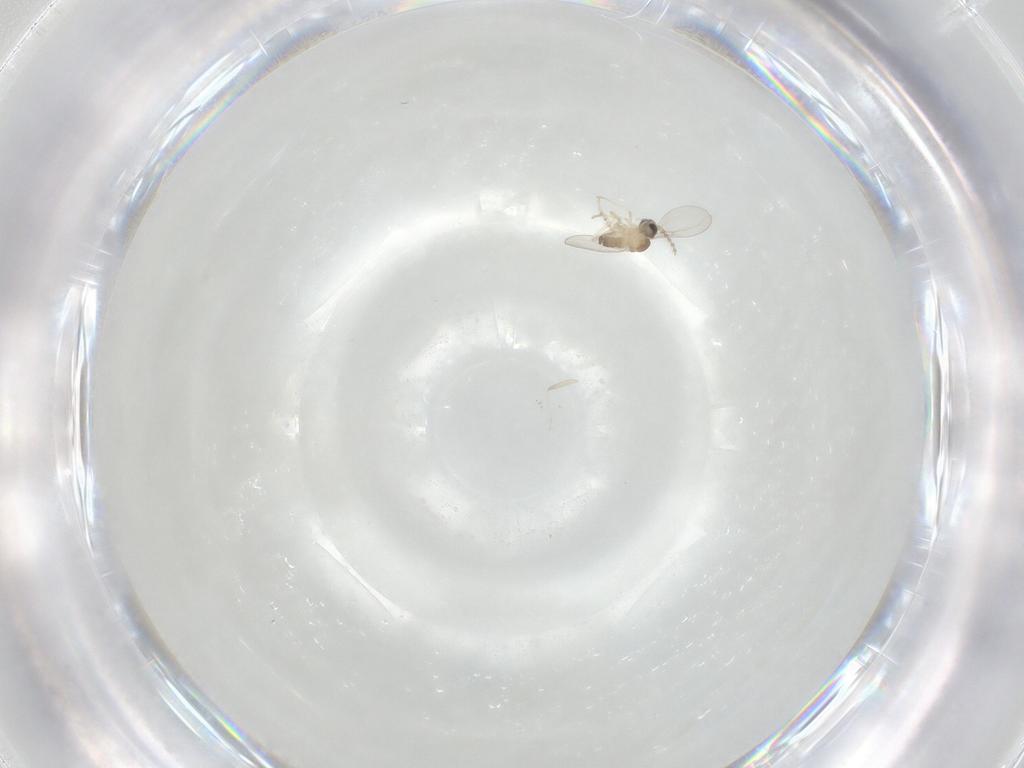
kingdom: Animalia
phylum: Arthropoda
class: Insecta
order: Diptera
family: Cecidomyiidae
